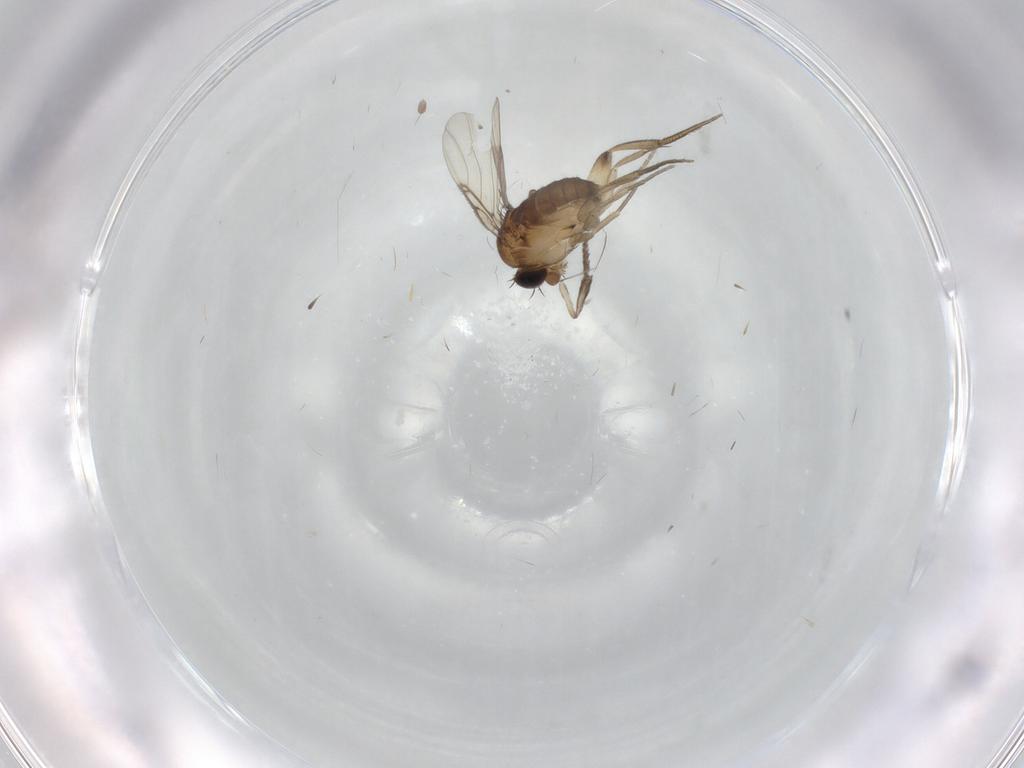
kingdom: Animalia
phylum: Arthropoda
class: Insecta
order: Diptera
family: Phoridae
